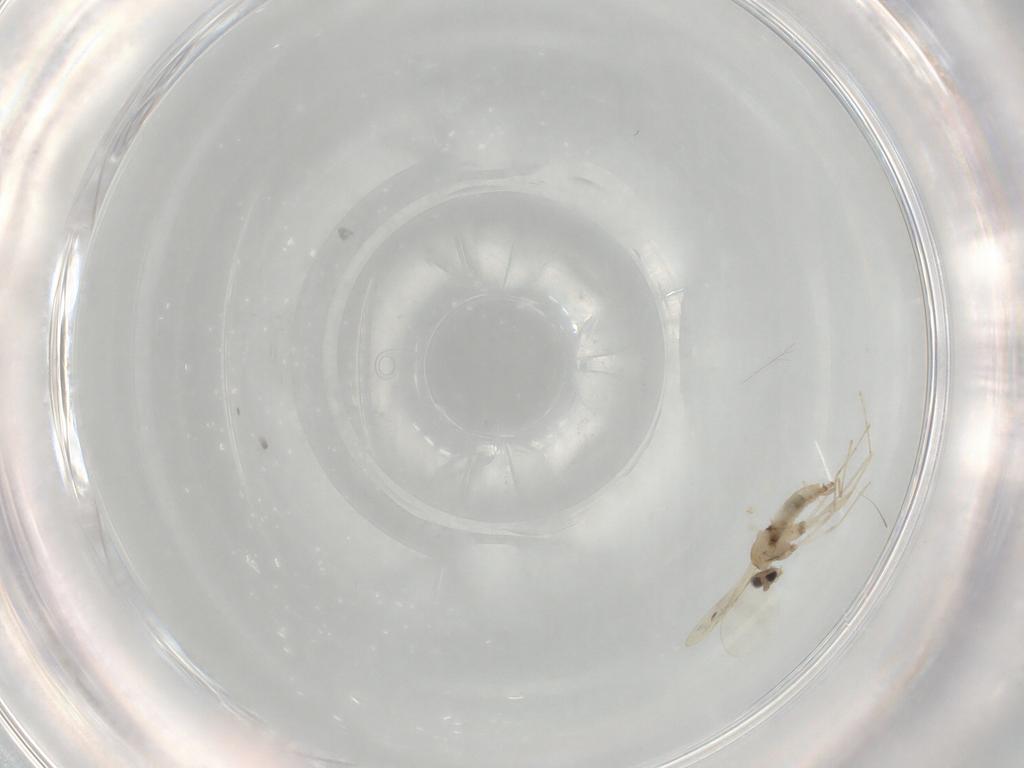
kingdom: Animalia
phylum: Arthropoda
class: Insecta
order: Diptera
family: Cecidomyiidae
